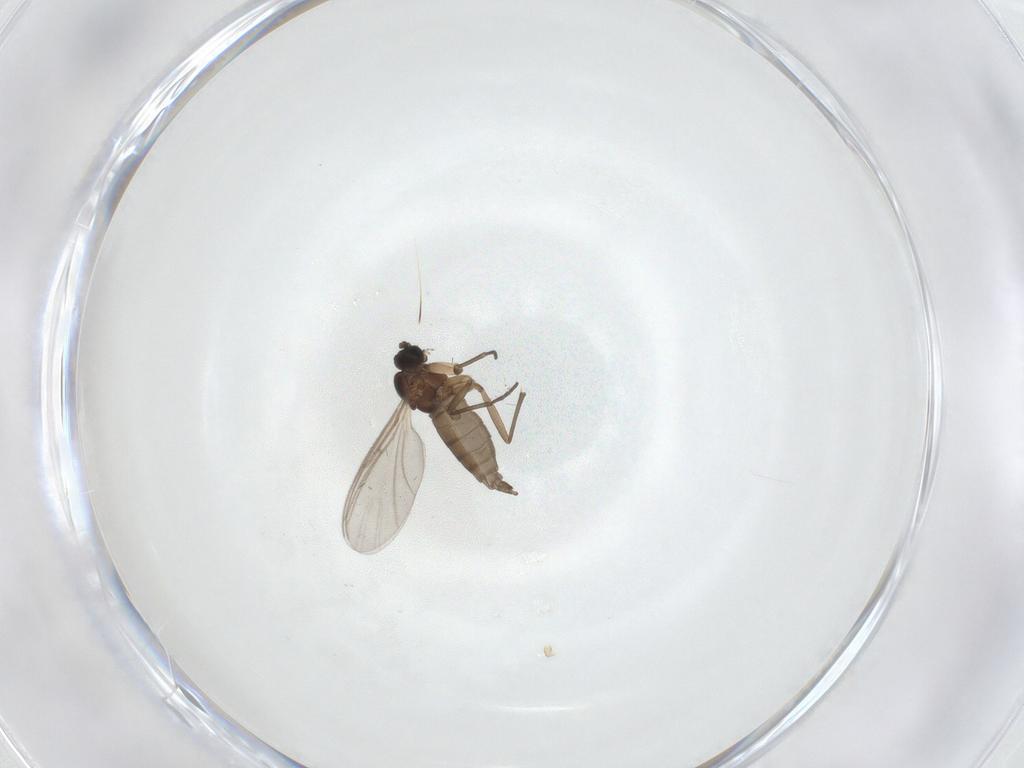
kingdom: Animalia
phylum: Arthropoda
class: Insecta
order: Diptera
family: Sciaridae
